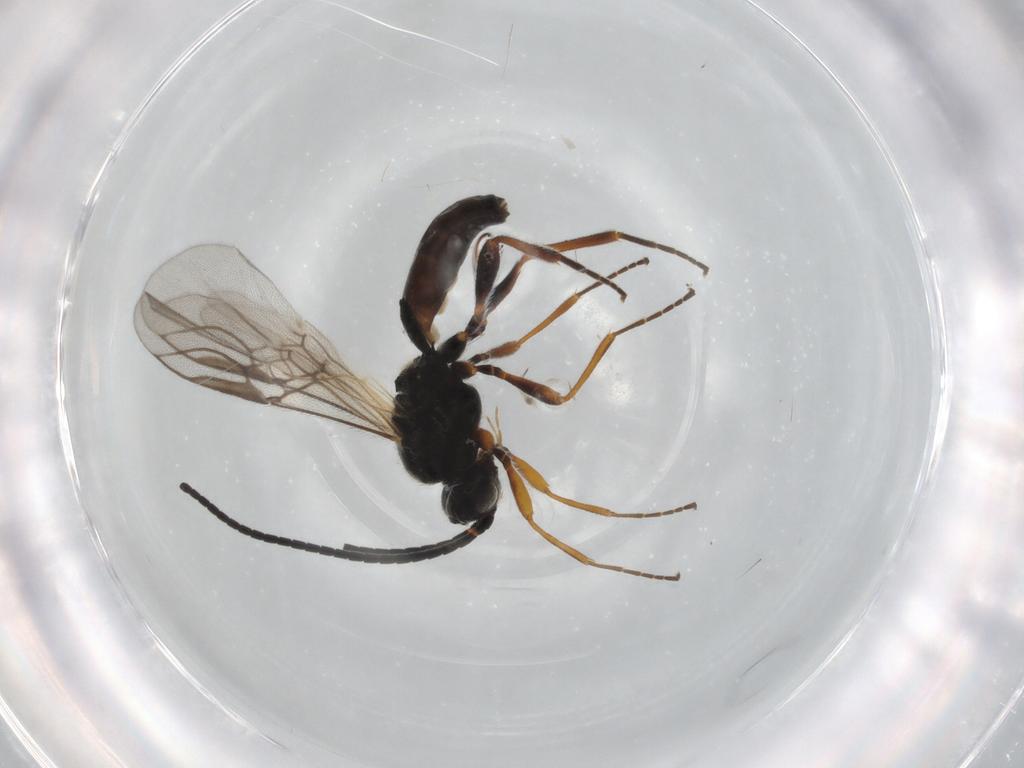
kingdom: Animalia
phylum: Arthropoda
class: Insecta
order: Hymenoptera
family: Braconidae
